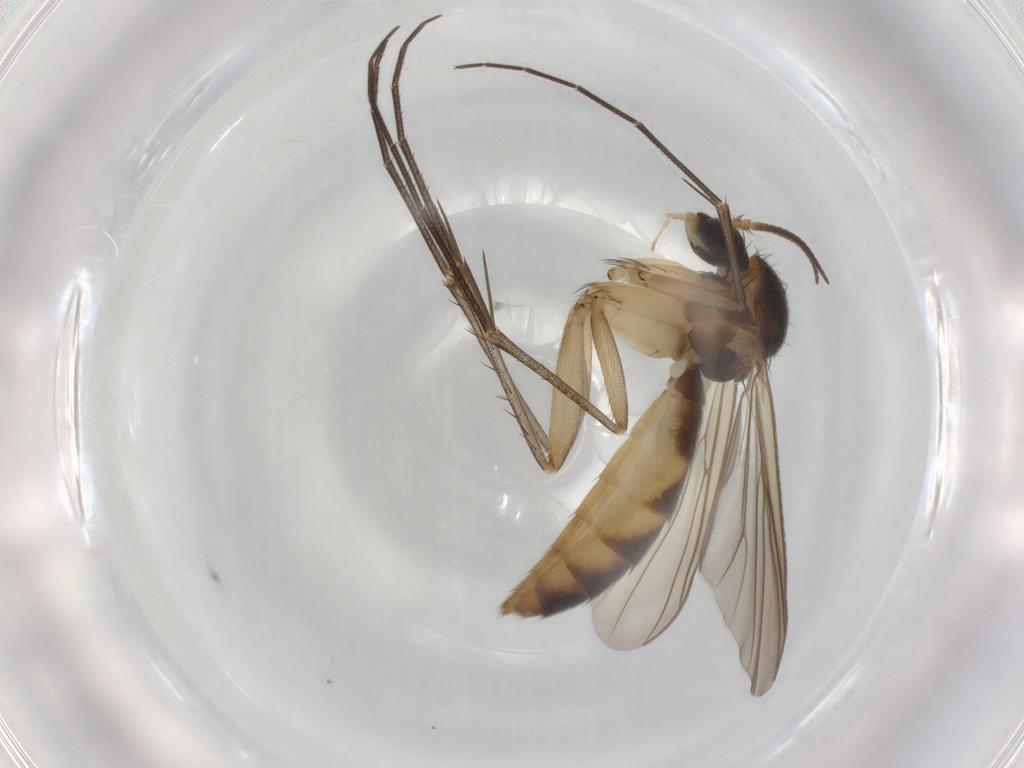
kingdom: Animalia
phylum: Arthropoda
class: Insecta
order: Diptera
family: Mycetophilidae
